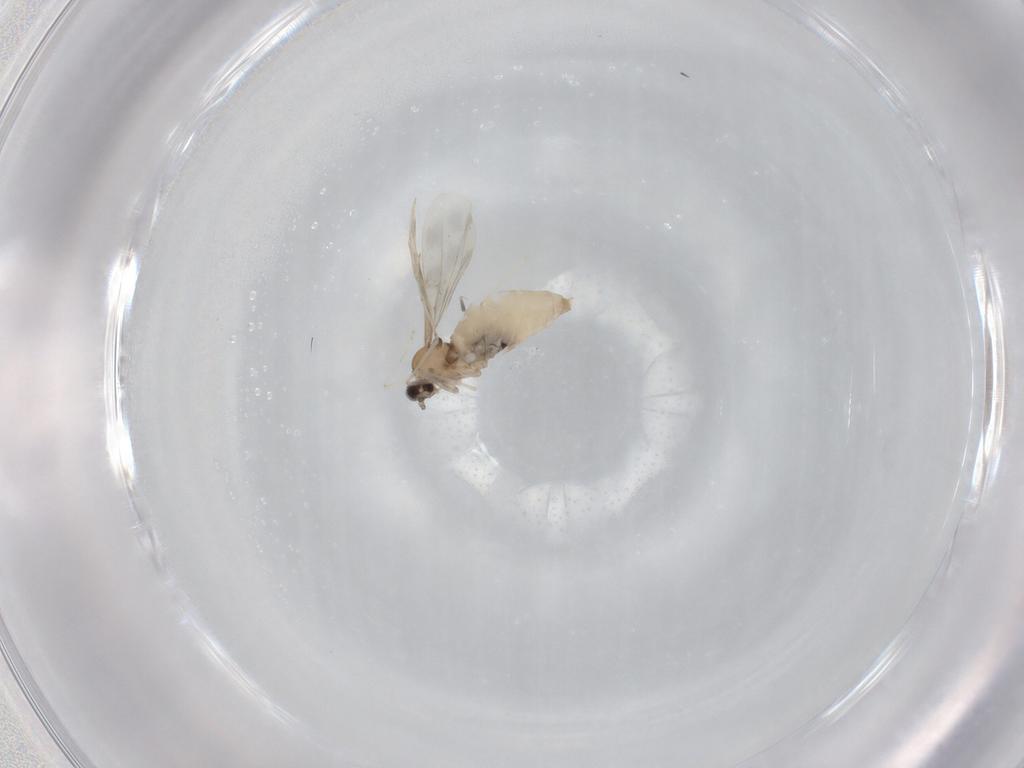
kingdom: Animalia
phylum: Arthropoda
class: Insecta
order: Diptera
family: Cecidomyiidae
